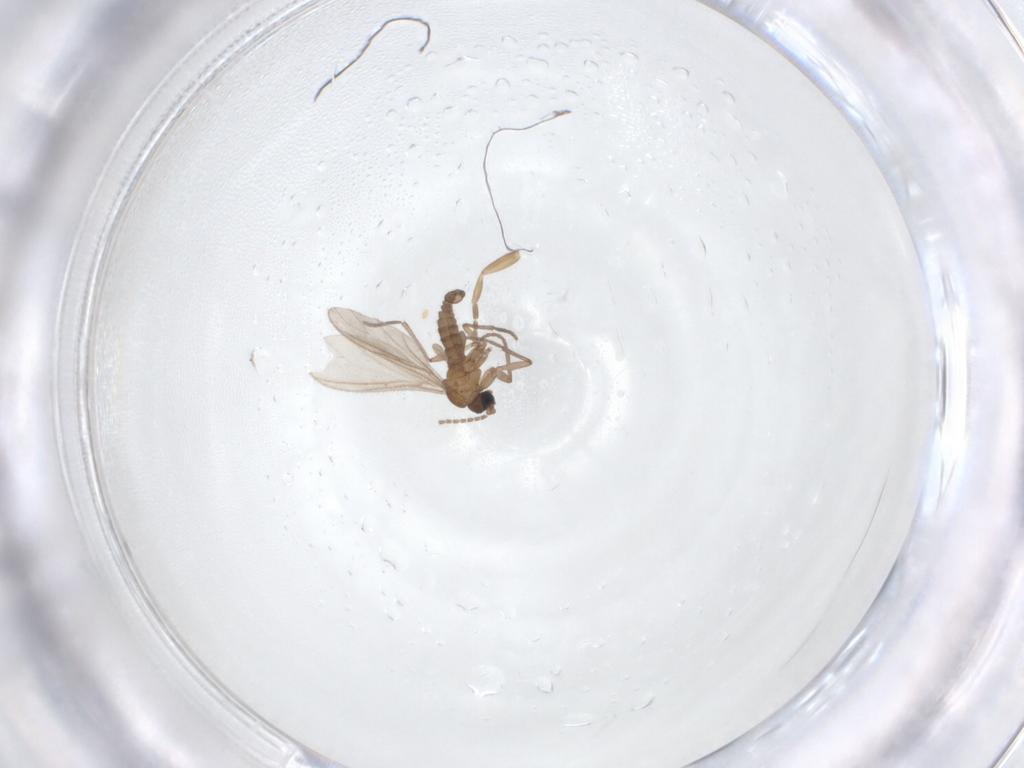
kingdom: Animalia
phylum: Arthropoda
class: Insecta
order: Diptera
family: Sciaridae
